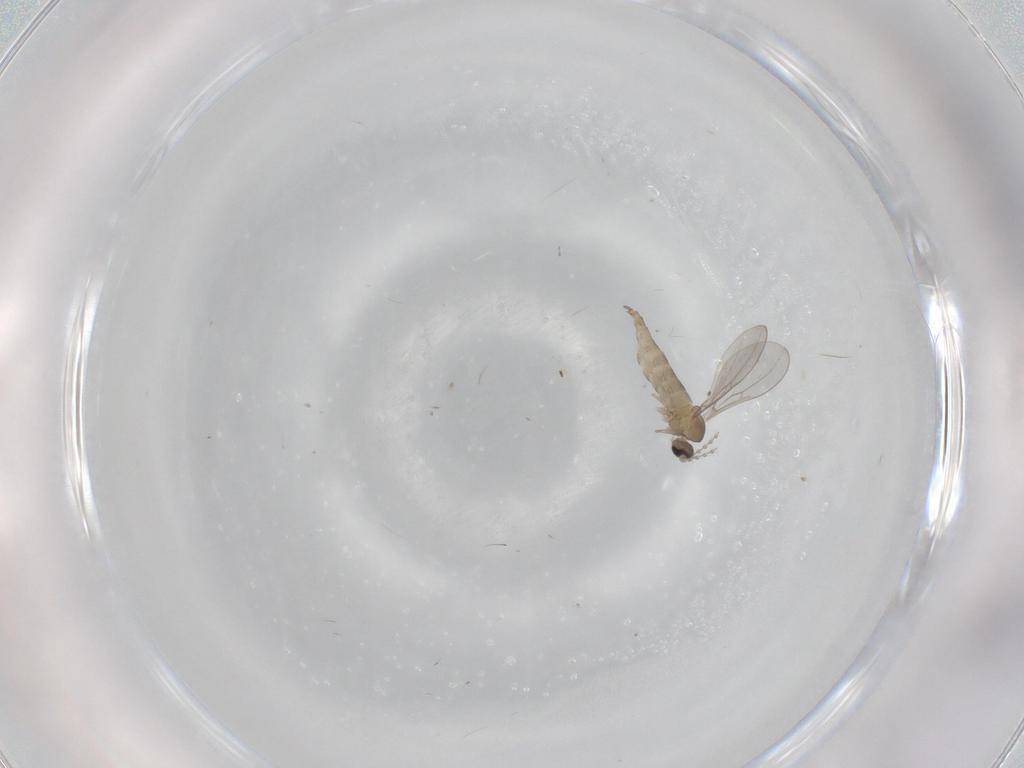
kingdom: Animalia
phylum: Arthropoda
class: Insecta
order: Diptera
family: Cecidomyiidae
